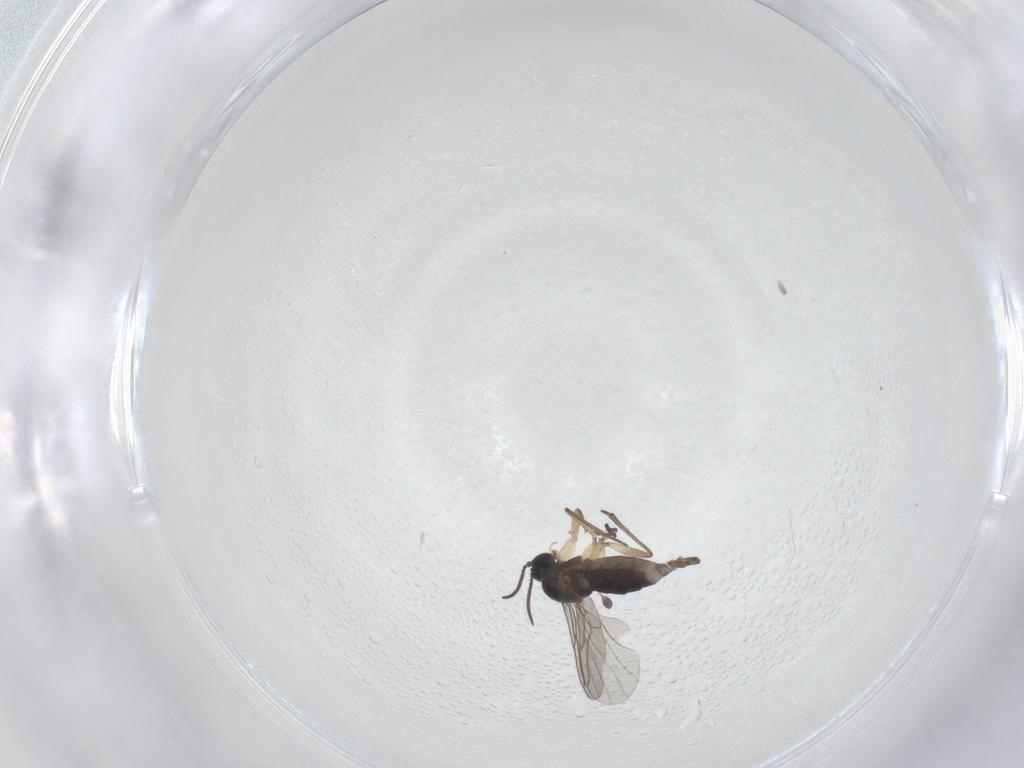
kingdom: Animalia
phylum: Arthropoda
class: Insecta
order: Diptera
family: Sciaridae
